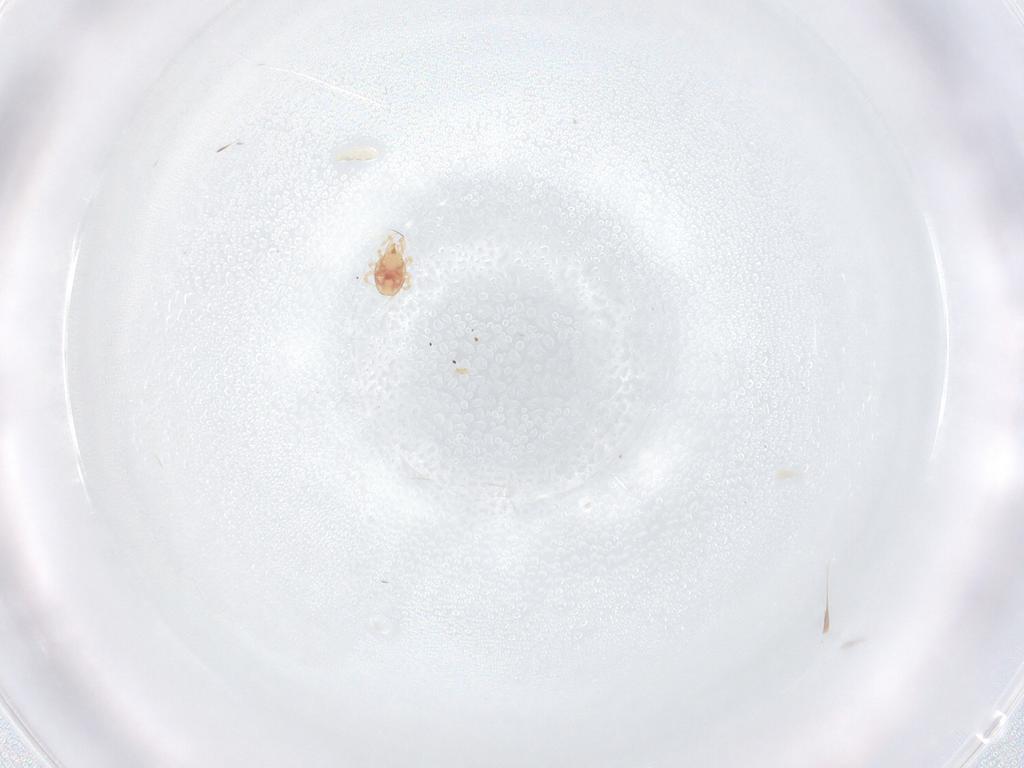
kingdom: Animalia
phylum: Arthropoda
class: Arachnida
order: Mesostigmata
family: Phytoseiidae
